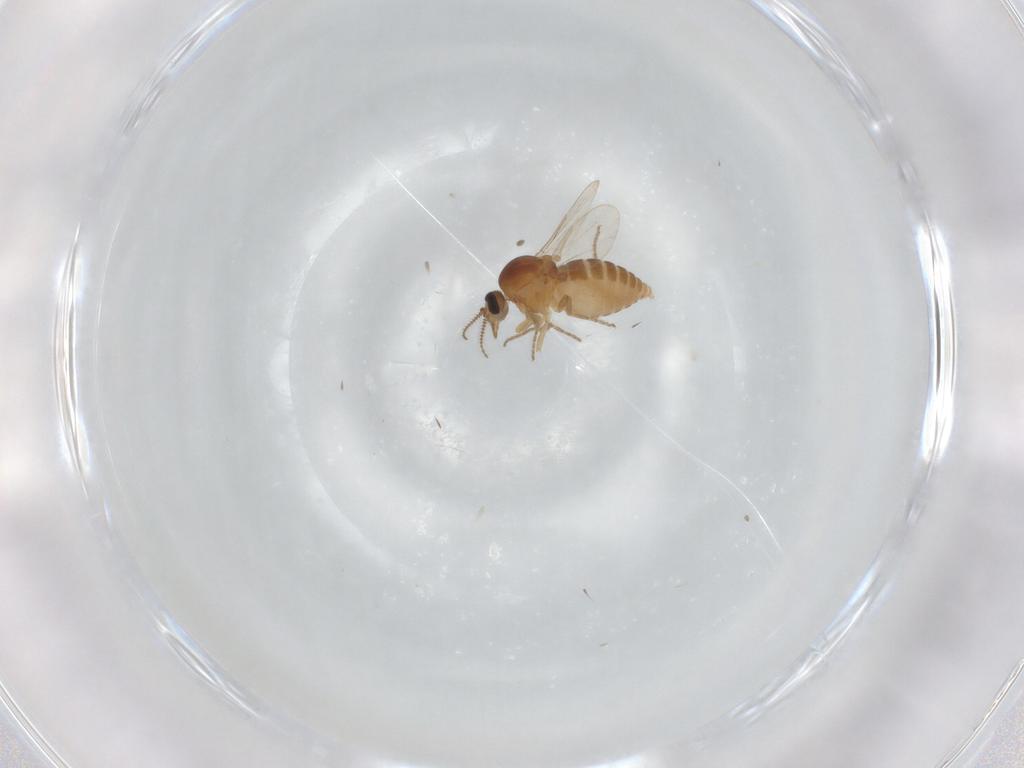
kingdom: Animalia
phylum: Arthropoda
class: Insecta
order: Diptera
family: Ceratopogonidae
